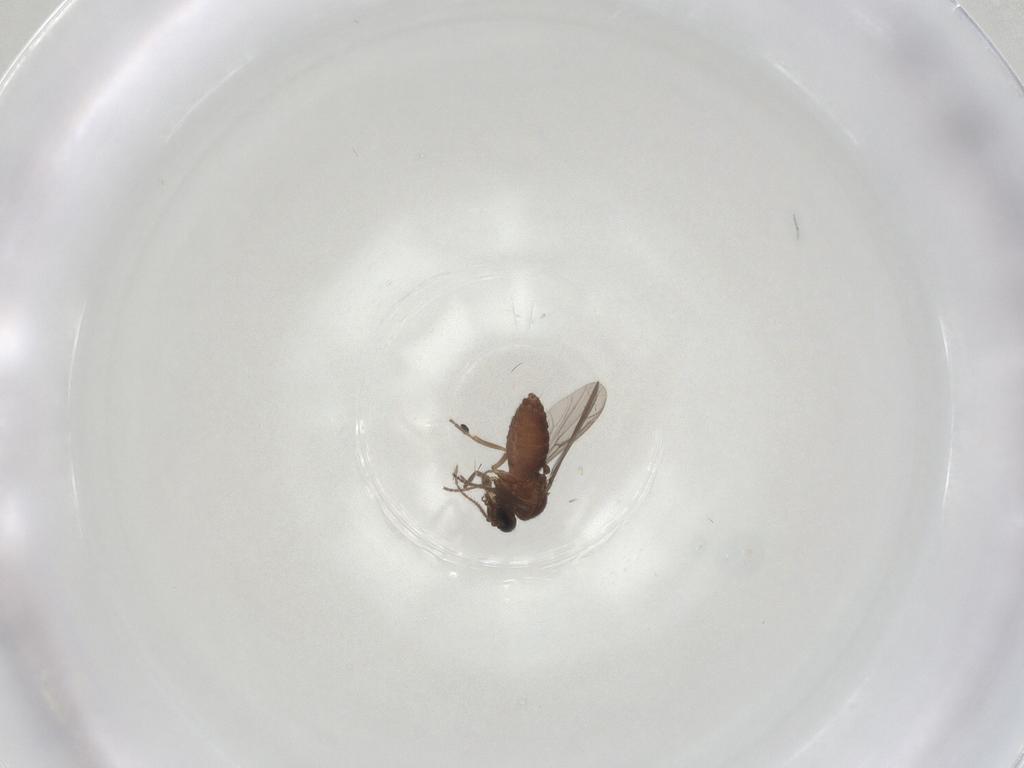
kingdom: Animalia
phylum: Arthropoda
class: Insecta
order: Diptera
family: Ceratopogonidae
